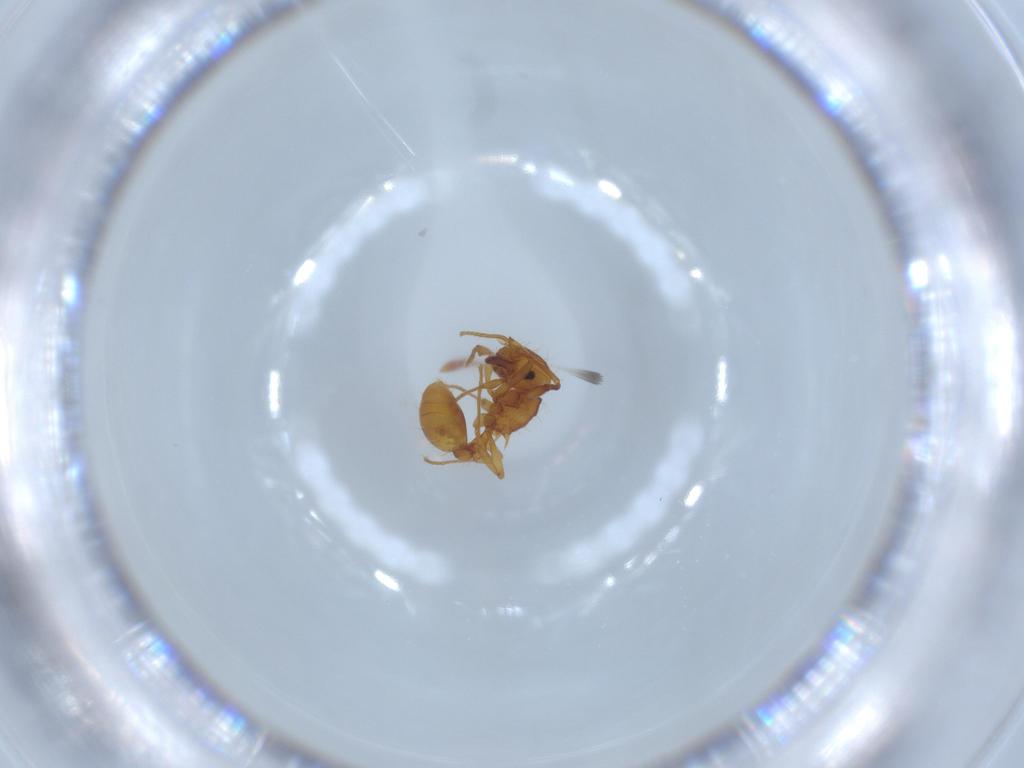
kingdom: Animalia
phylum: Arthropoda
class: Insecta
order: Hymenoptera
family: Formicidae
